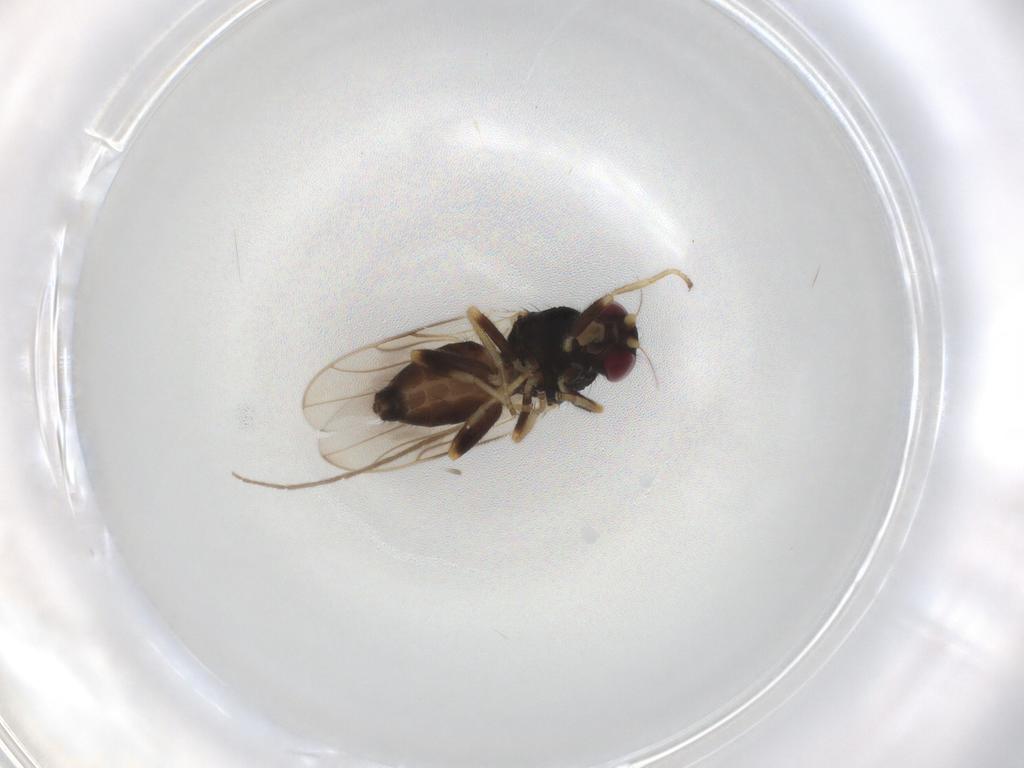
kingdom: Animalia
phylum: Arthropoda
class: Insecta
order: Diptera
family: Chloropidae
